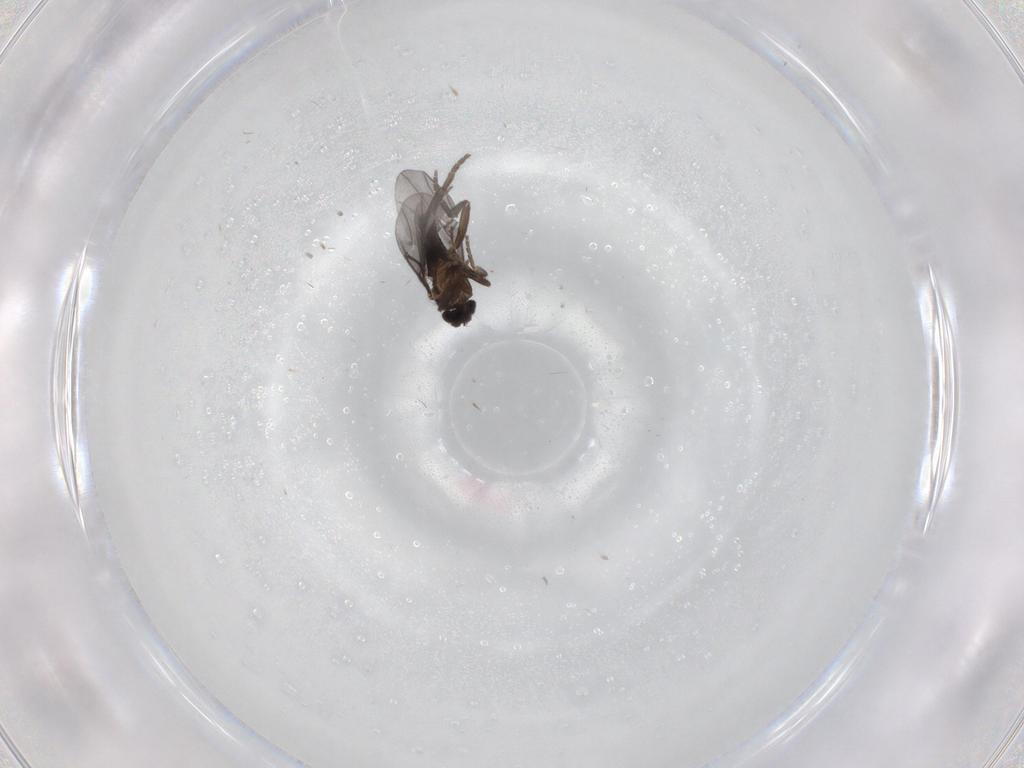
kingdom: Animalia
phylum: Arthropoda
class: Insecta
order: Diptera
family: Phoridae
